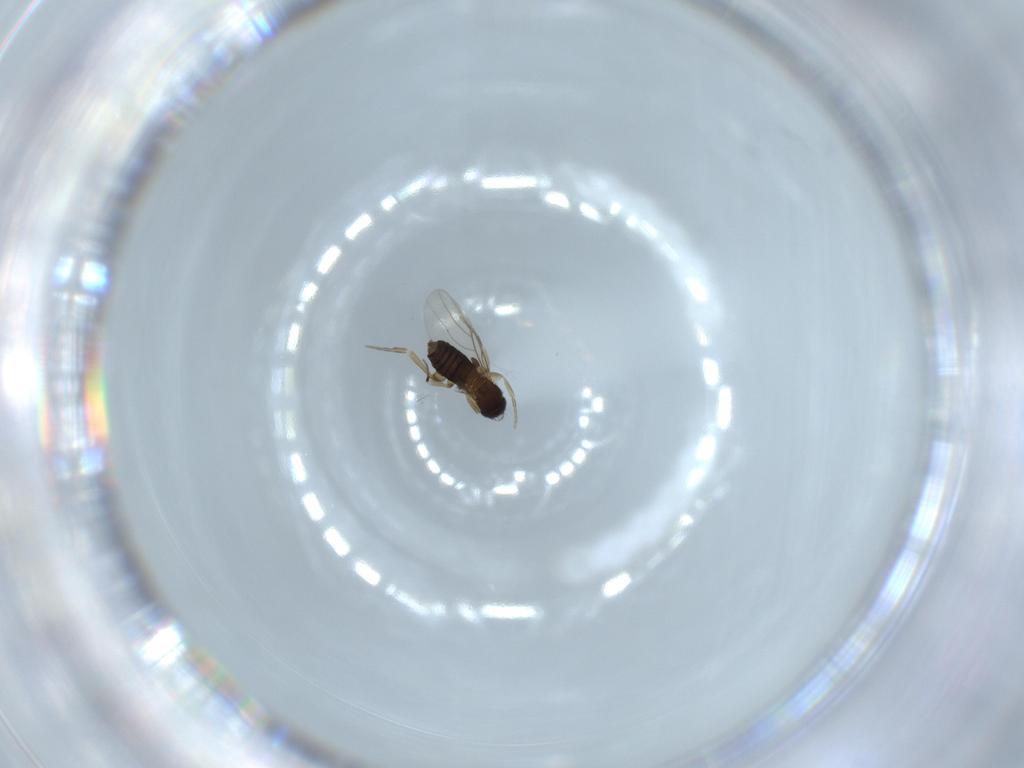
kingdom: Animalia
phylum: Arthropoda
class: Insecta
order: Diptera
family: Phoridae
